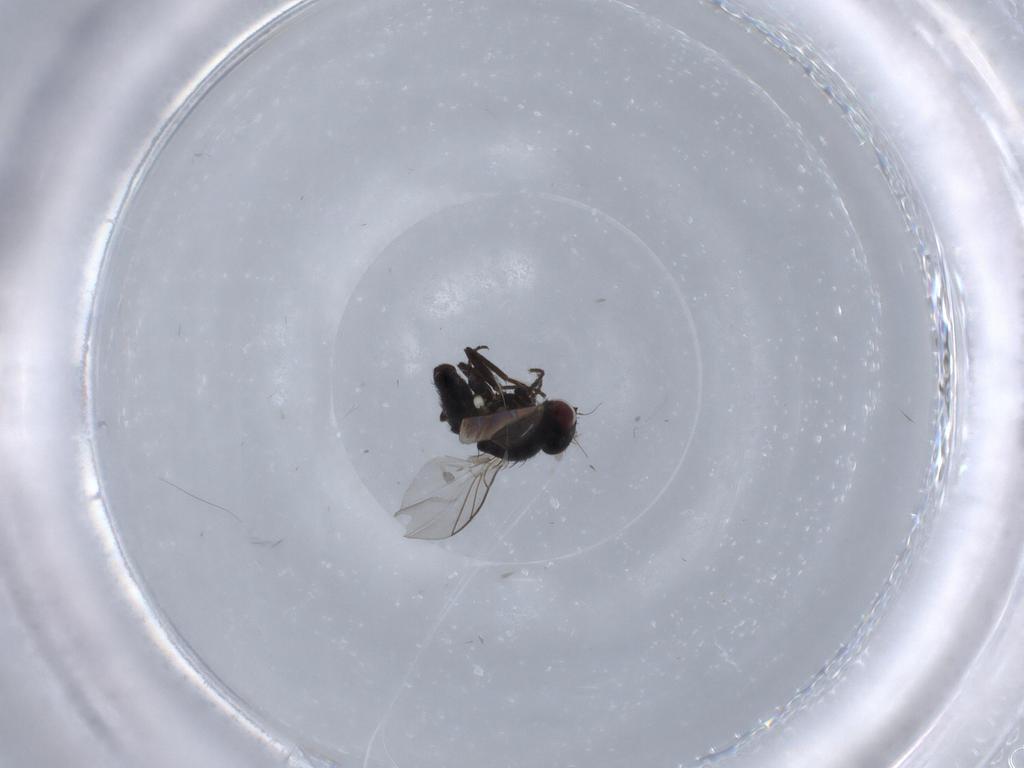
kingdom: Animalia
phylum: Arthropoda
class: Insecta
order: Diptera
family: Asilidae
